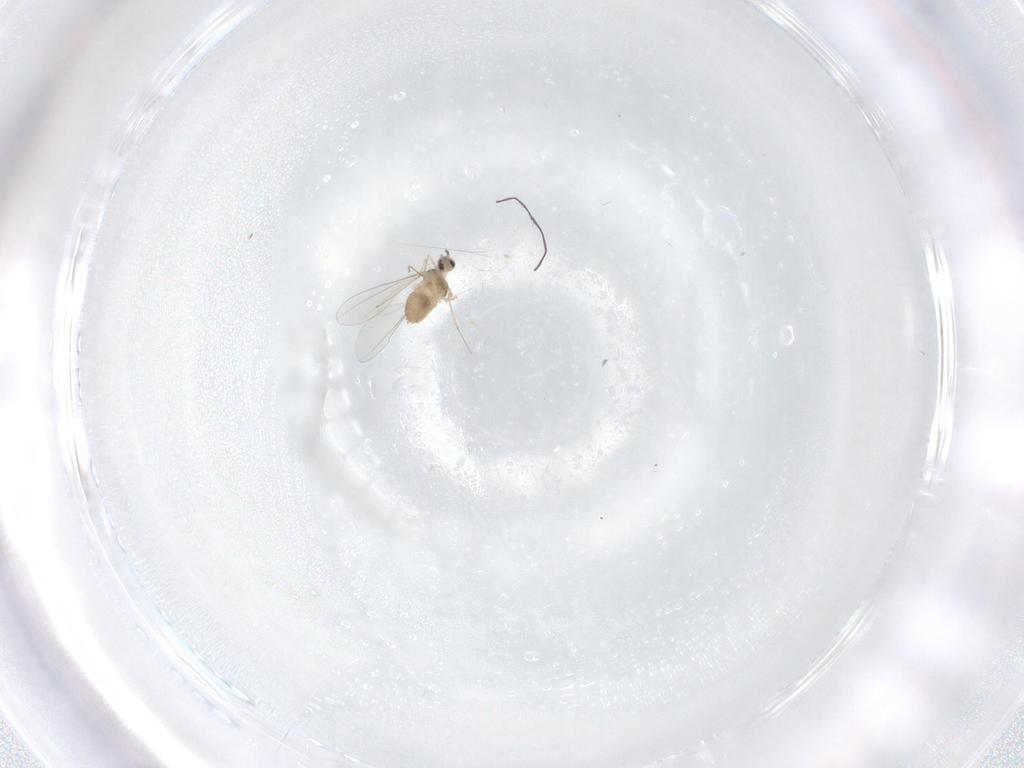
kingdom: Animalia
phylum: Arthropoda
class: Insecta
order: Diptera
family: Cecidomyiidae
